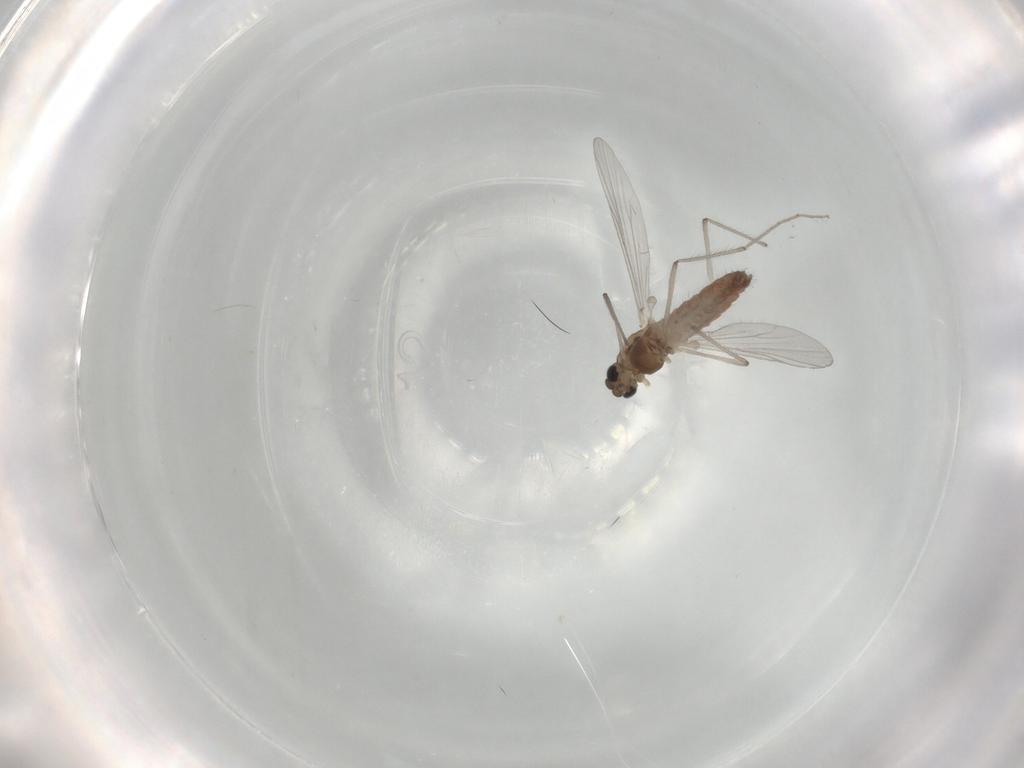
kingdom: Animalia
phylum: Arthropoda
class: Insecta
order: Diptera
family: Chironomidae
